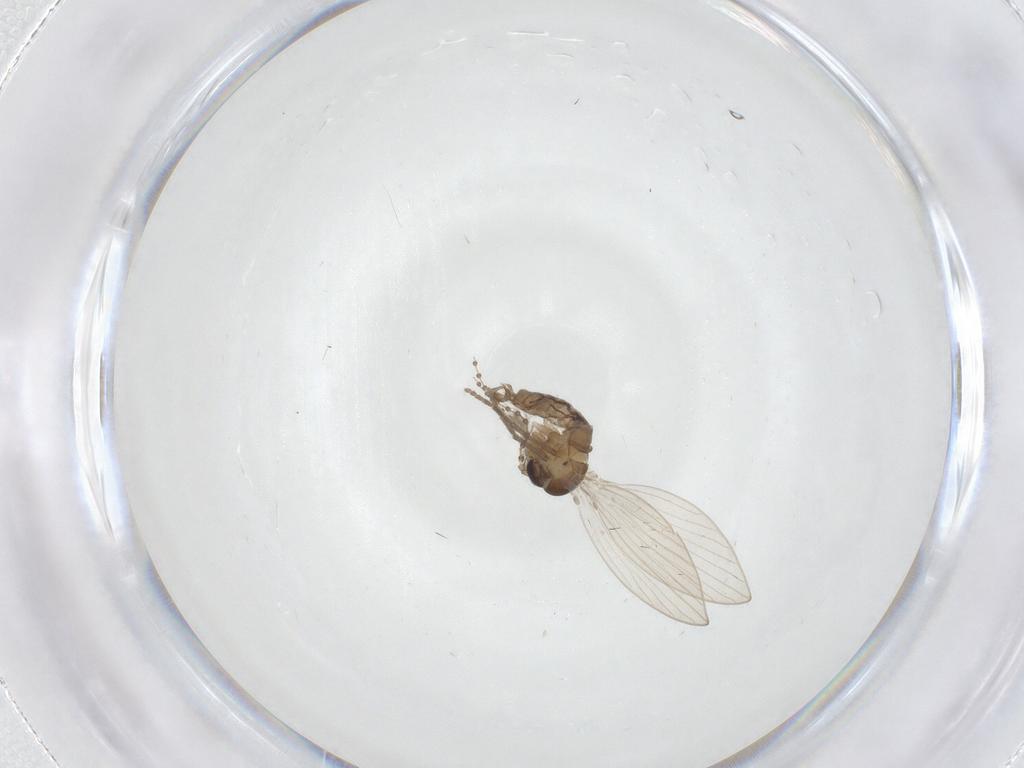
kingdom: Animalia
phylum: Arthropoda
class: Insecta
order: Diptera
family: Psychodidae
